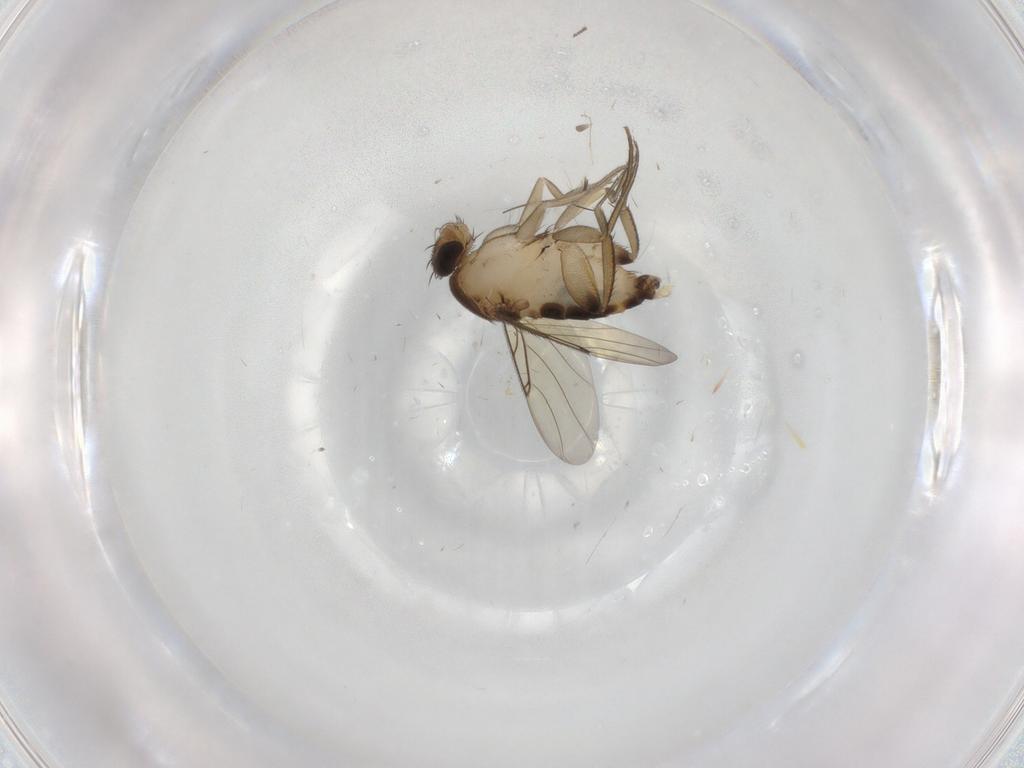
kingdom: Animalia
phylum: Arthropoda
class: Insecta
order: Diptera
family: Phoridae
